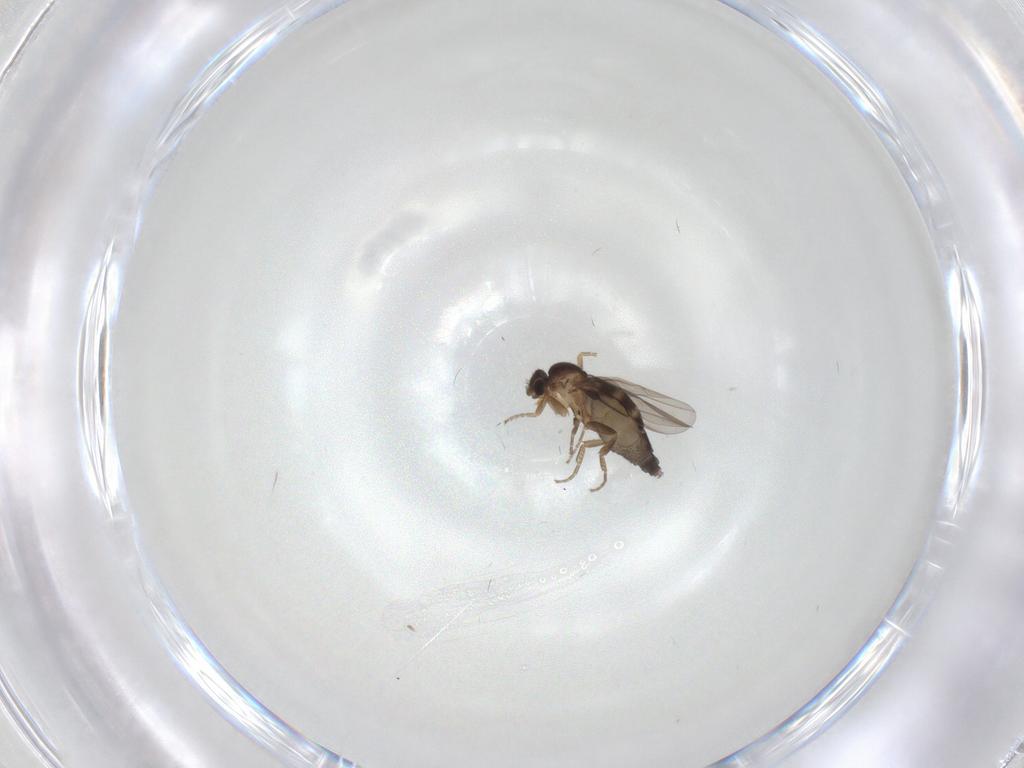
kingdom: Animalia
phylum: Arthropoda
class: Insecta
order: Diptera
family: Phoridae
